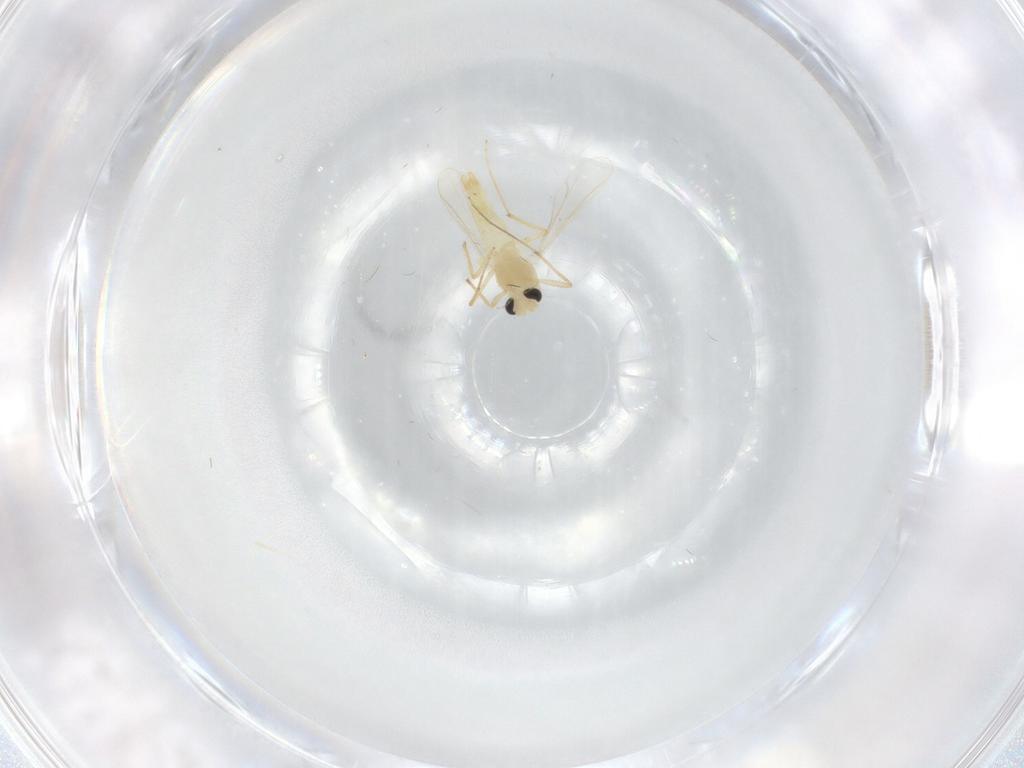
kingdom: Animalia
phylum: Arthropoda
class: Insecta
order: Diptera
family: Chironomidae
